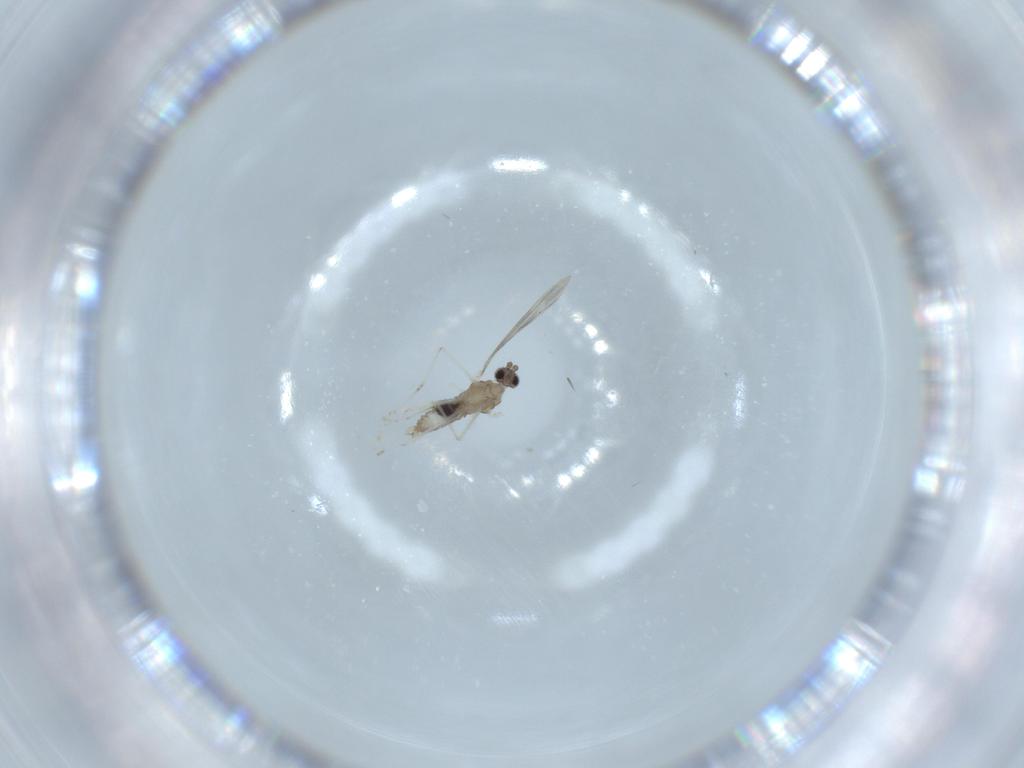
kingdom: Animalia
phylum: Arthropoda
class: Insecta
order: Diptera
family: Cecidomyiidae
